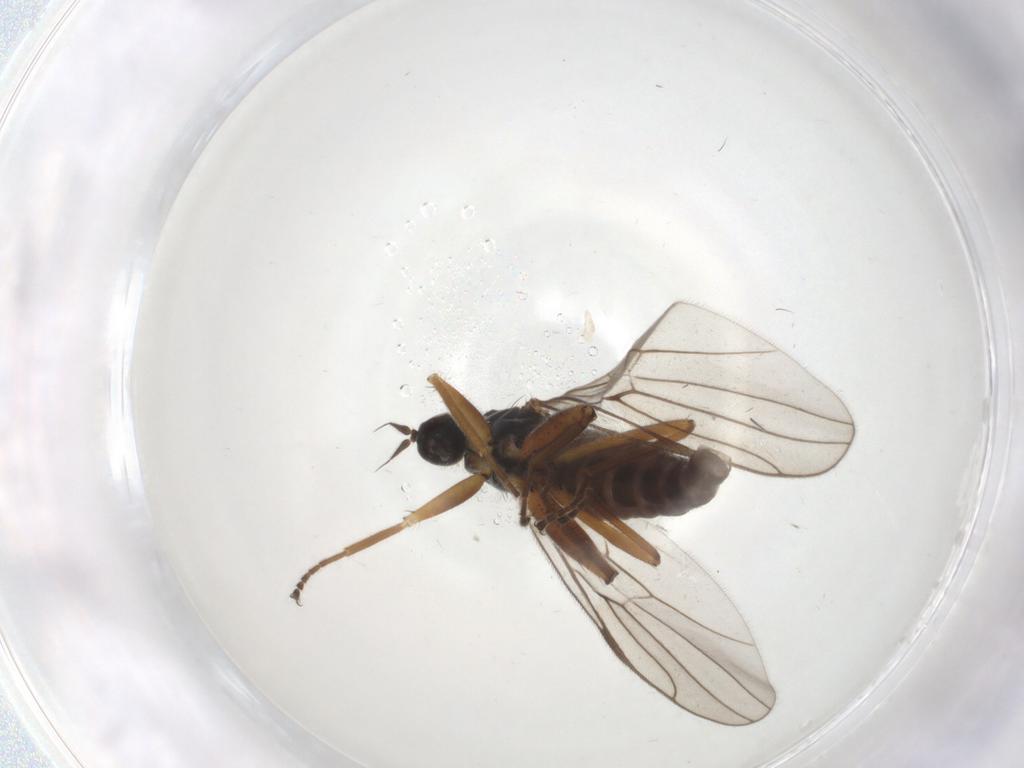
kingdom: Animalia
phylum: Arthropoda
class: Insecta
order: Diptera
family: Hybotidae
